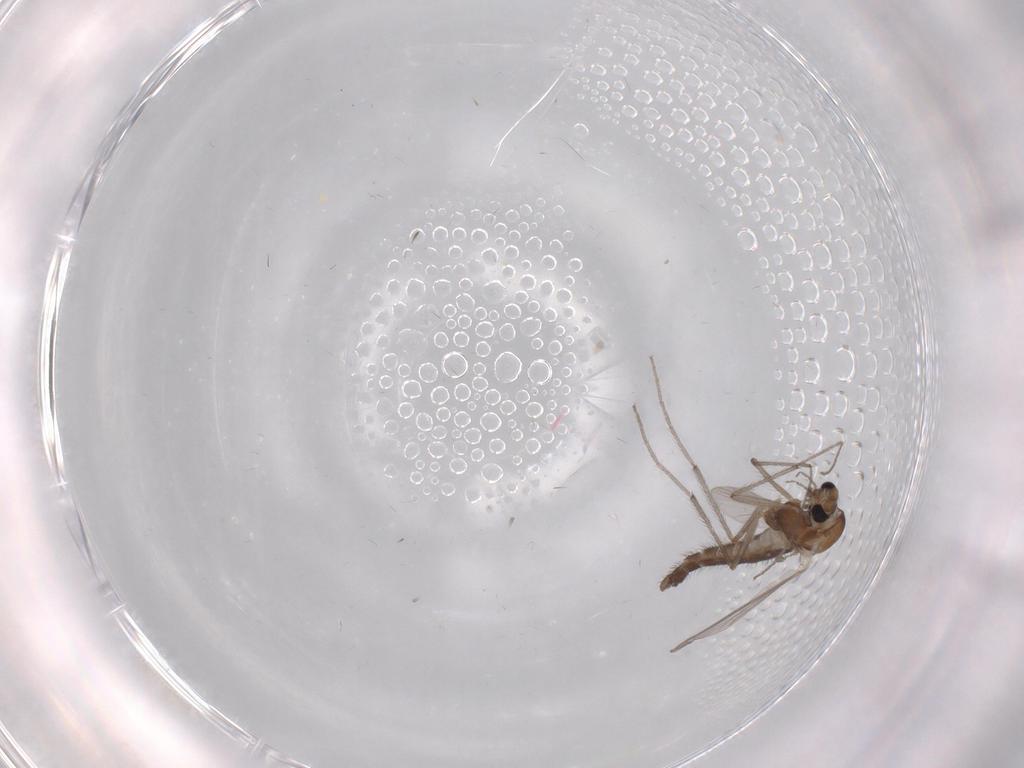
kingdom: Animalia
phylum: Arthropoda
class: Insecta
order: Diptera
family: Chironomidae
